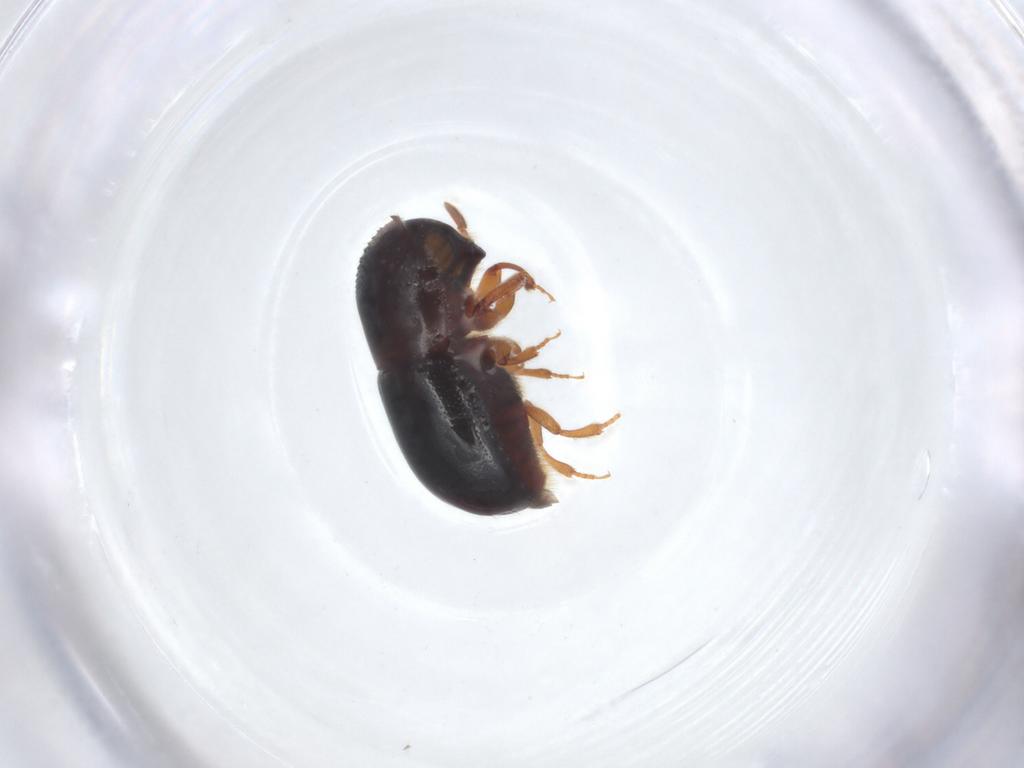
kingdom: Animalia
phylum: Arthropoda
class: Insecta
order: Coleoptera
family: Curculionidae
